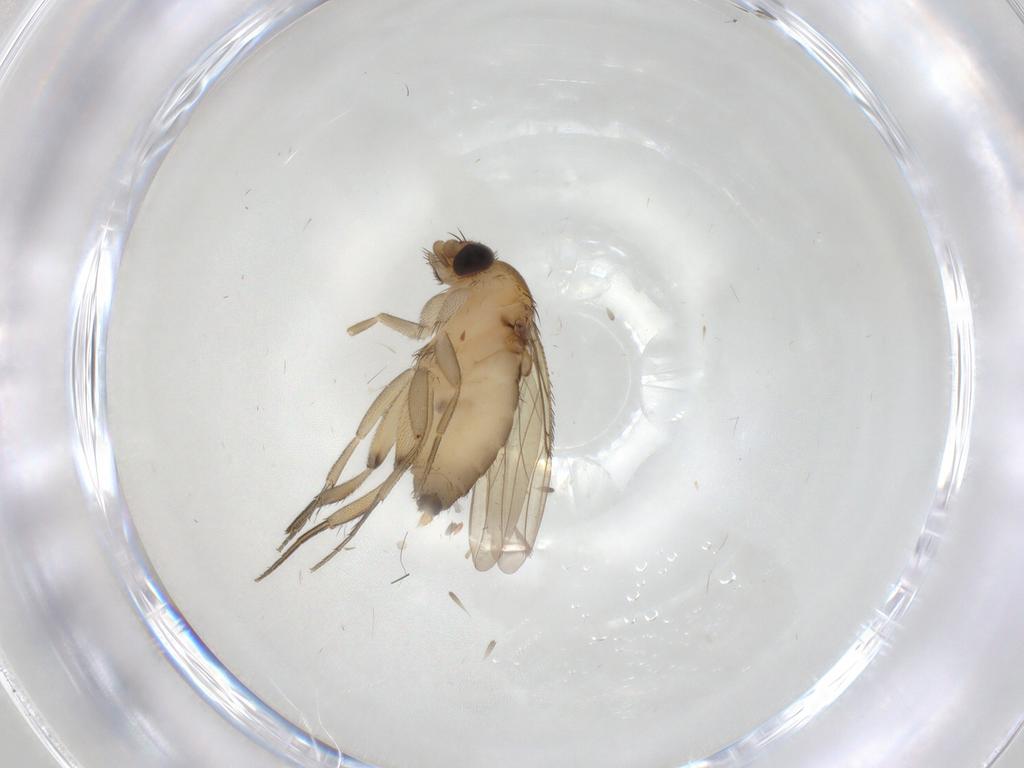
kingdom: Animalia
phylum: Arthropoda
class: Insecta
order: Diptera
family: Phoridae
